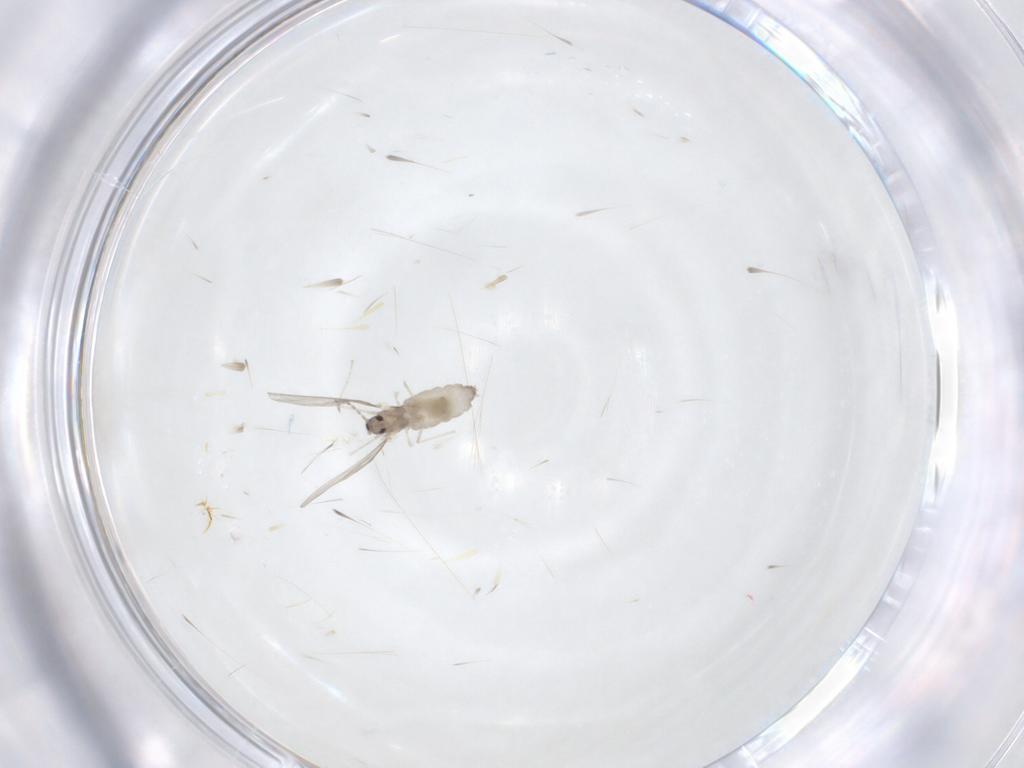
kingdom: Animalia
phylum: Arthropoda
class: Insecta
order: Diptera
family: Cecidomyiidae
